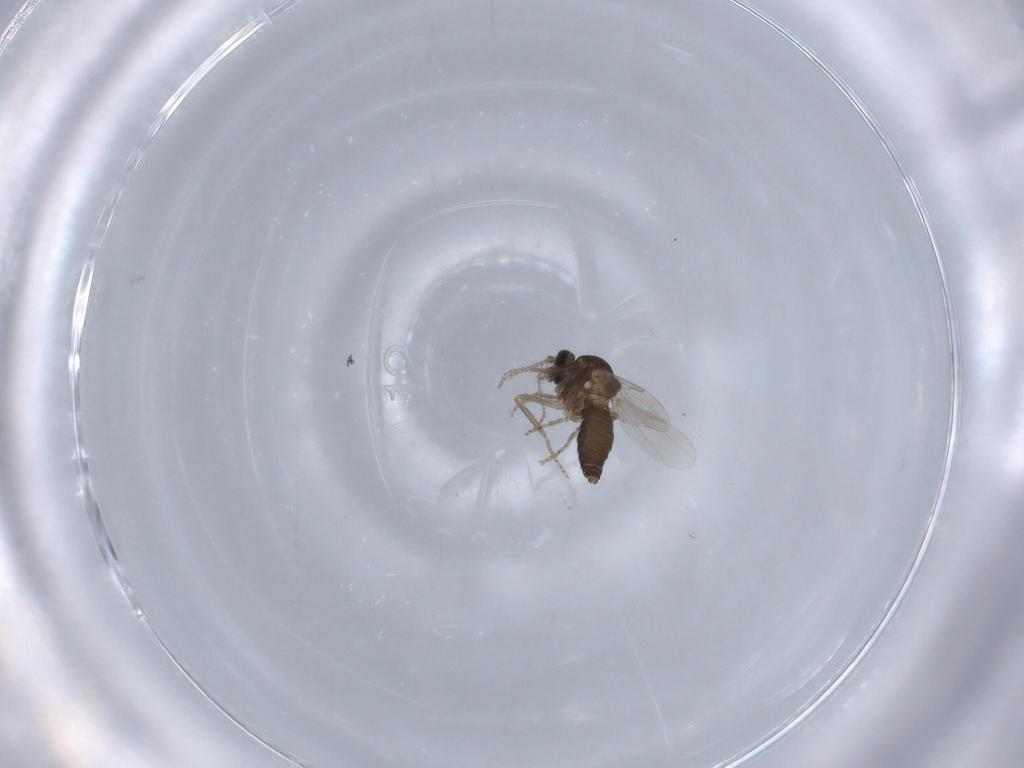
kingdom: Animalia
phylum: Arthropoda
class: Insecta
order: Diptera
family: Ceratopogonidae
